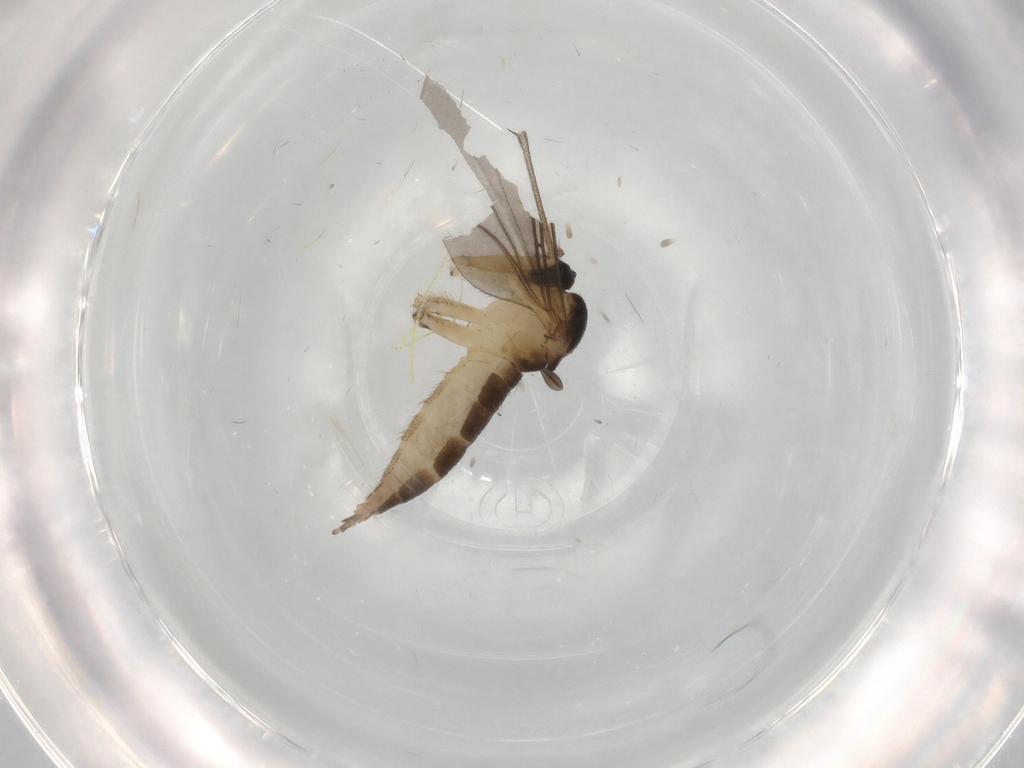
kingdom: Animalia
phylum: Arthropoda
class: Insecta
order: Diptera
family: Sciaridae
